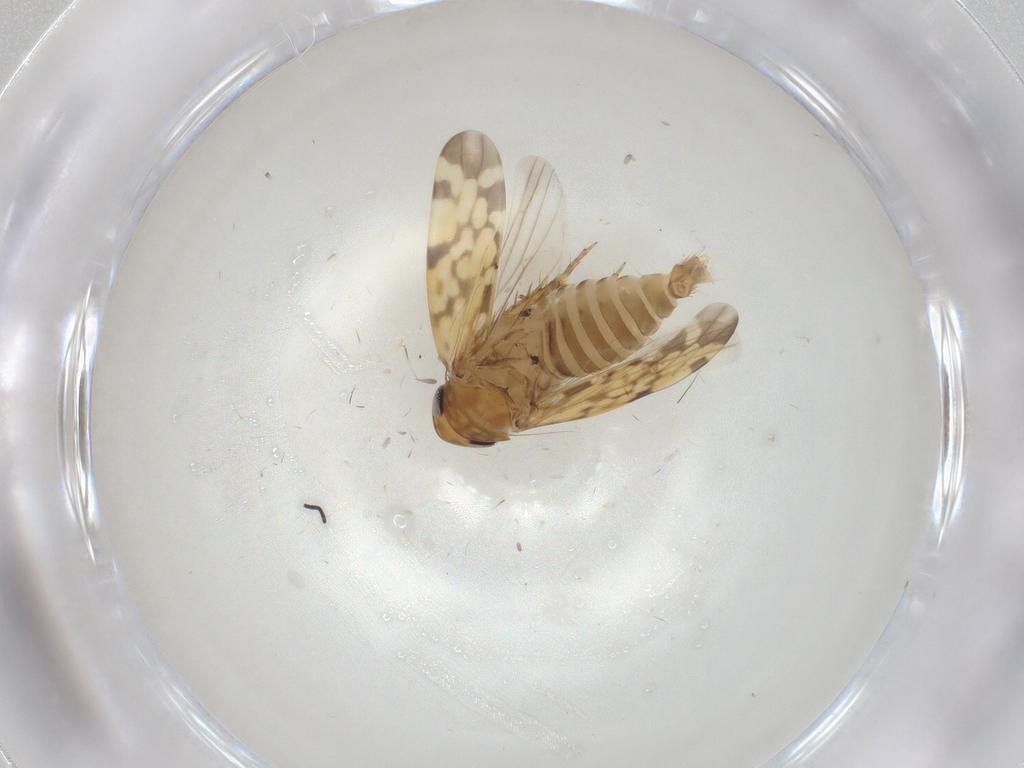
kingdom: Animalia
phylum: Arthropoda
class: Insecta
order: Hemiptera
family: Cicadellidae
